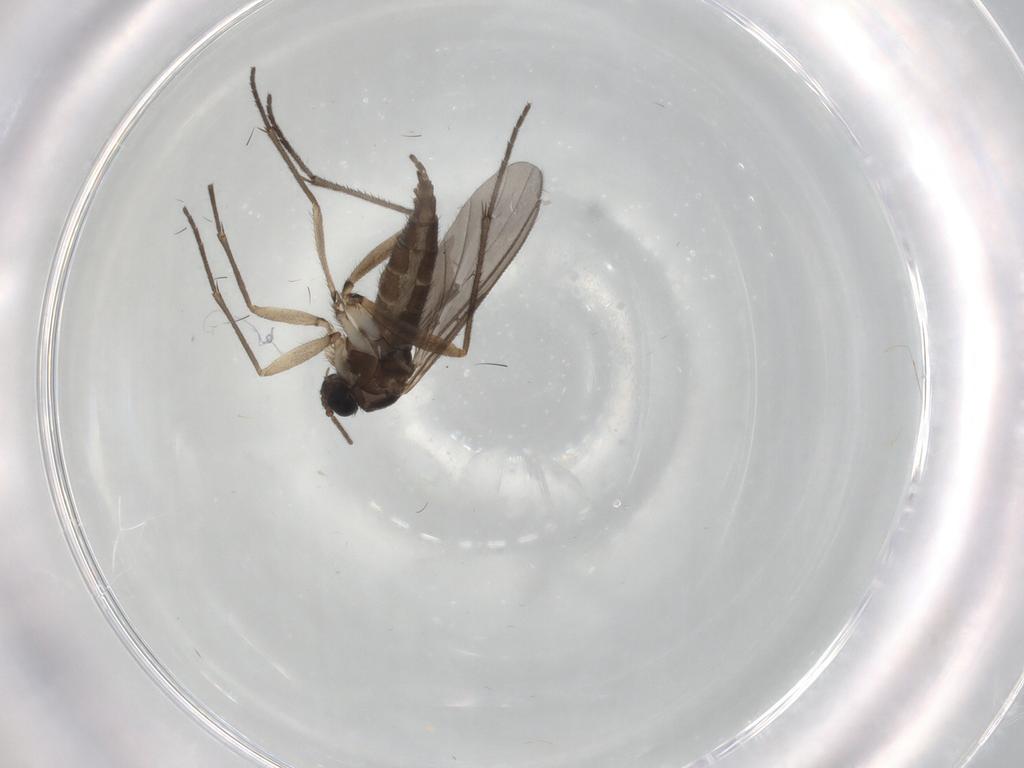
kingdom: Animalia
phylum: Arthropoda
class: Insecta
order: Diptera
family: Sciaridae
